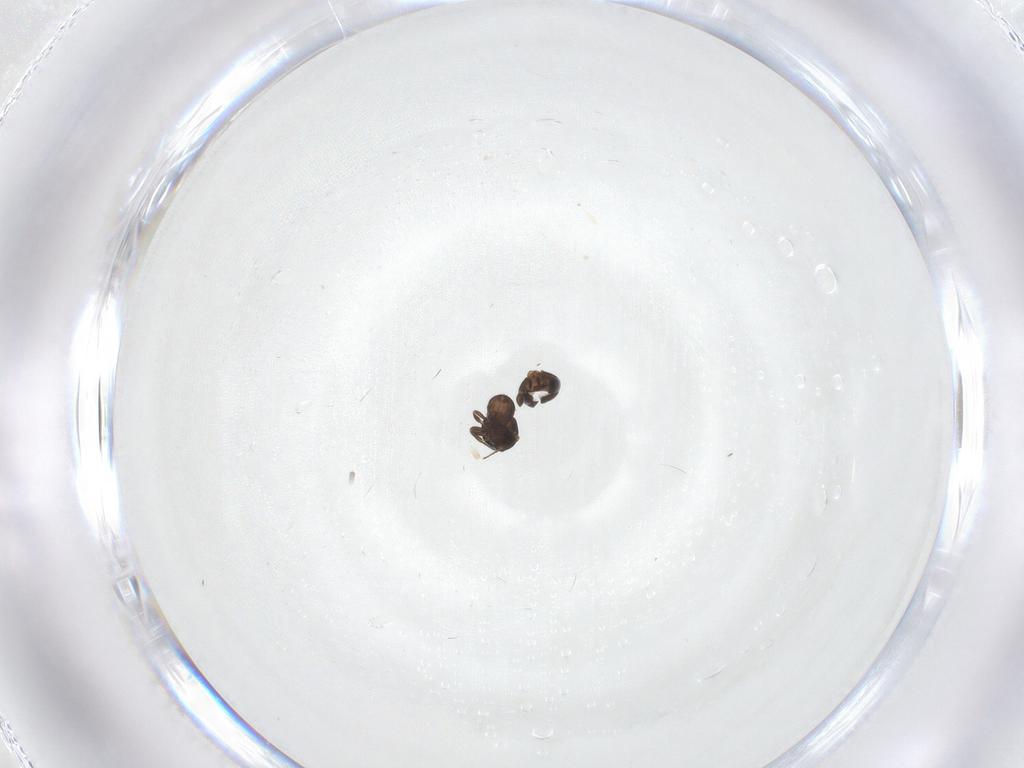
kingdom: Animalia
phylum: Arthropoda
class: Insecta
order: Hymenoptera
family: Scelionidae
